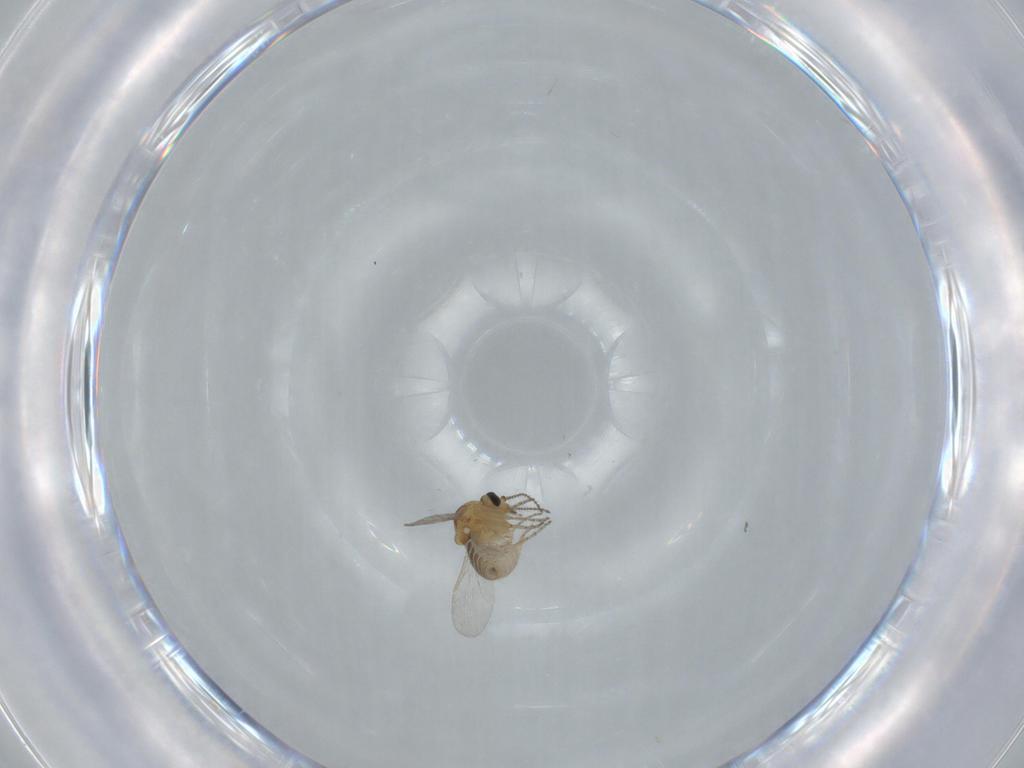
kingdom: Animalia
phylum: Arthropoda
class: Insecta
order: Diptera
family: Ceratopogonidae
